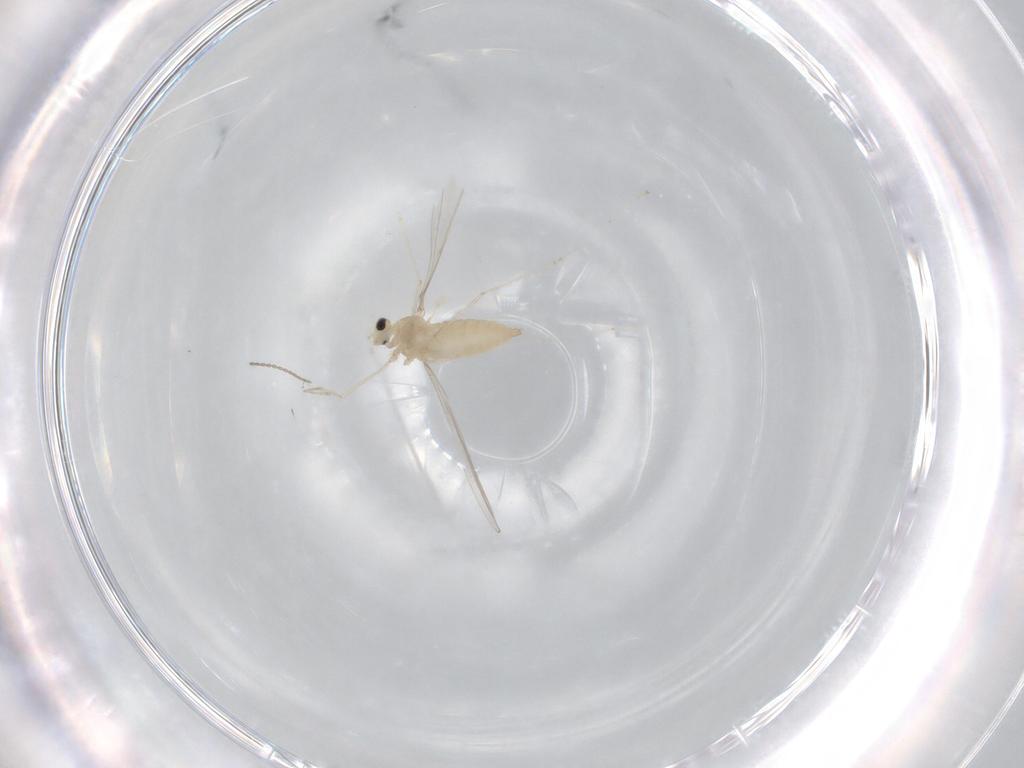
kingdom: Animalia
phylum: Arthropoda
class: Insecta
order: Diptera
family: Cecidomyiidae
